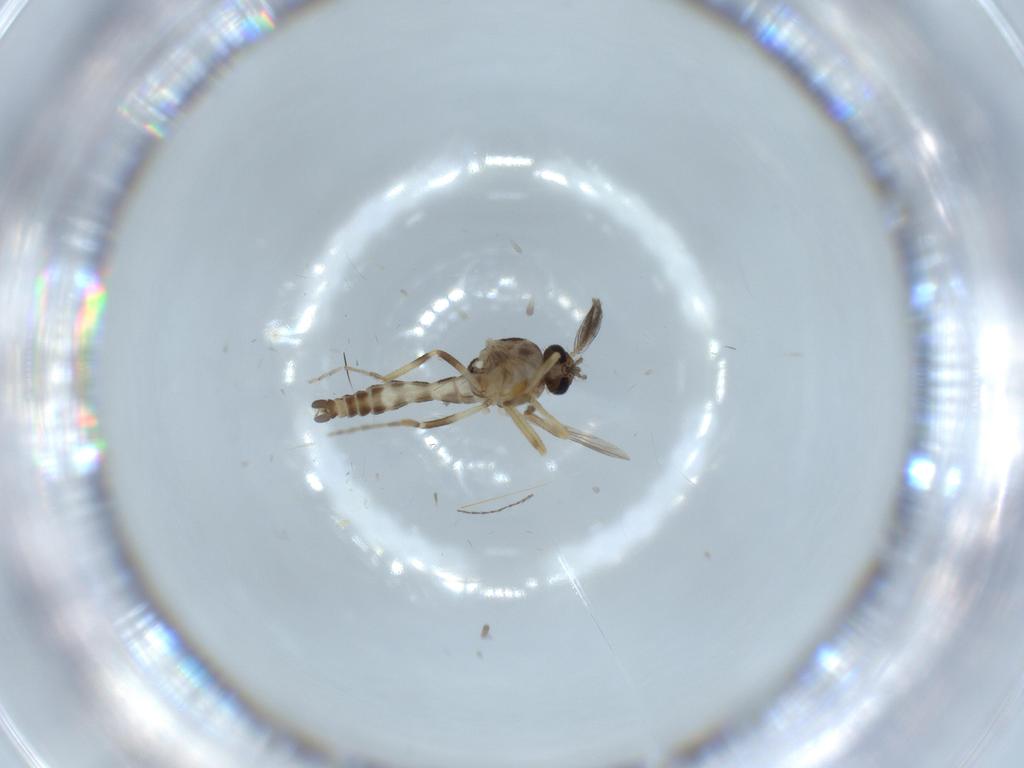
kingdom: Animalia
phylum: Arthropoda
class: Insecta
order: Diptera
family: Ceratopogonidae
